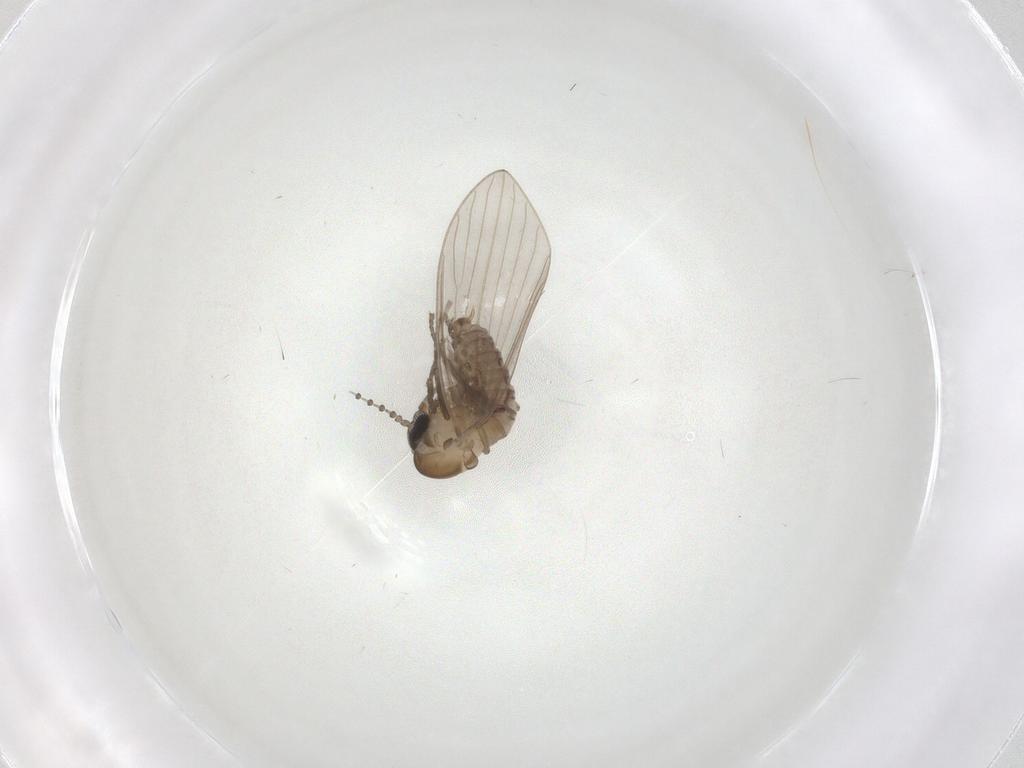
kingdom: Animalia
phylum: Arthropoda
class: Insecta
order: Diptera
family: Psychodidae
